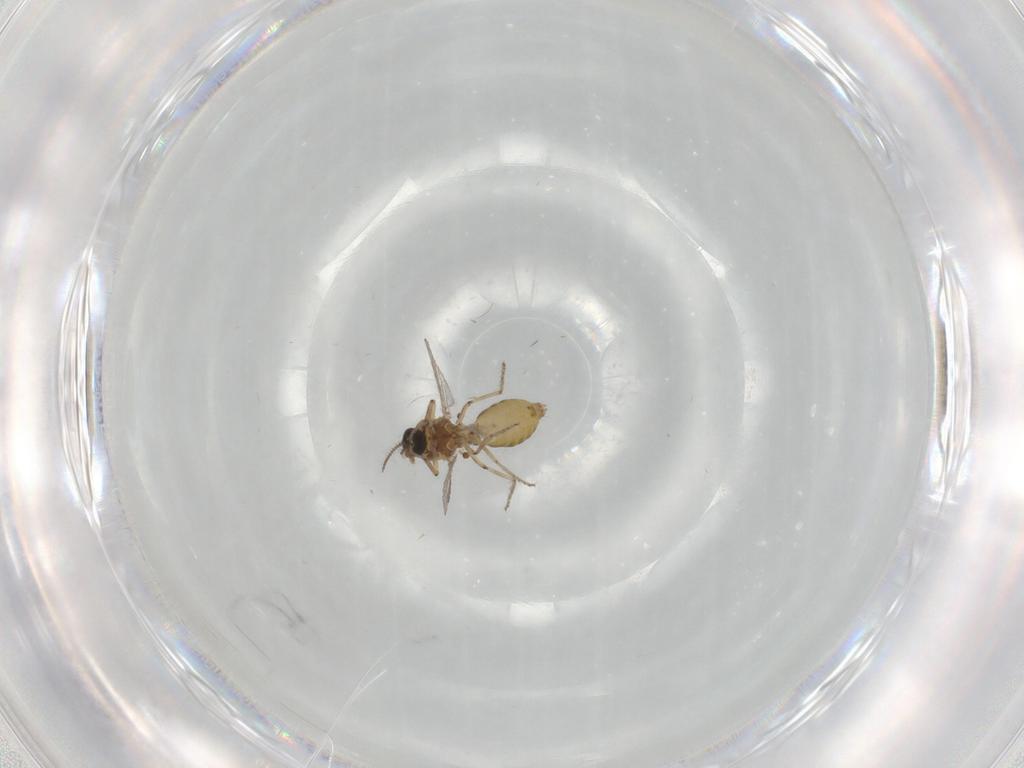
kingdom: Animalia
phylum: Arthropoda
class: Insecta
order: Diptera
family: Ceratopogonidae
